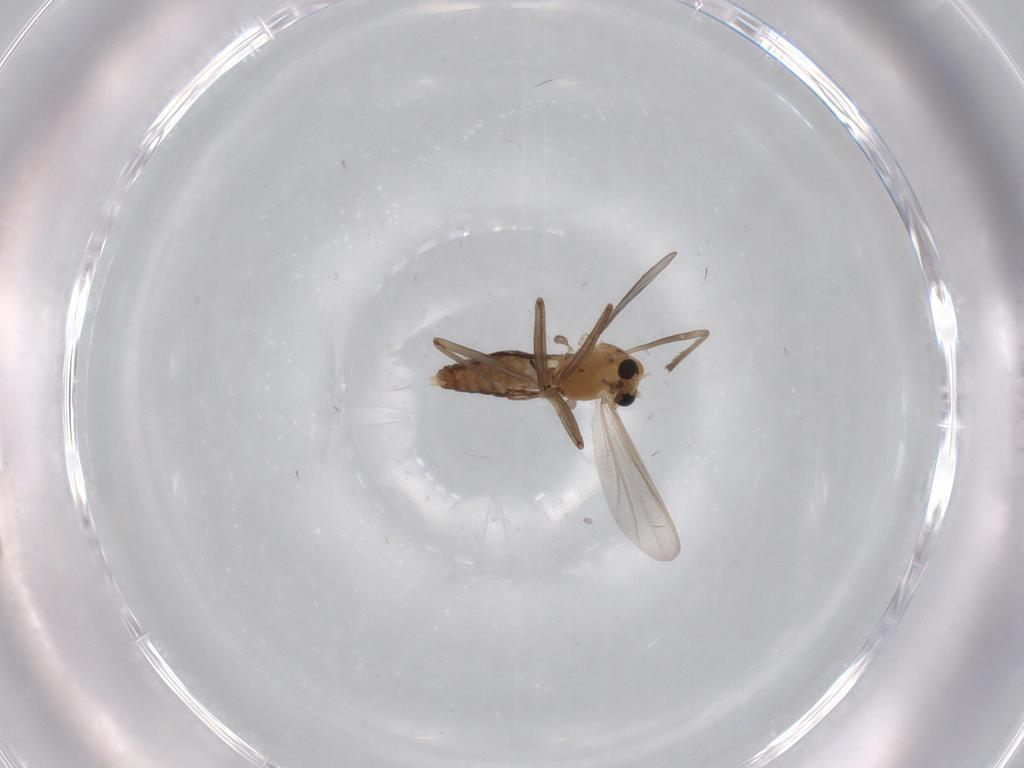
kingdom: Animalia
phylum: Arthropoda
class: Insecta
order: Diptera
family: Chironomidae
